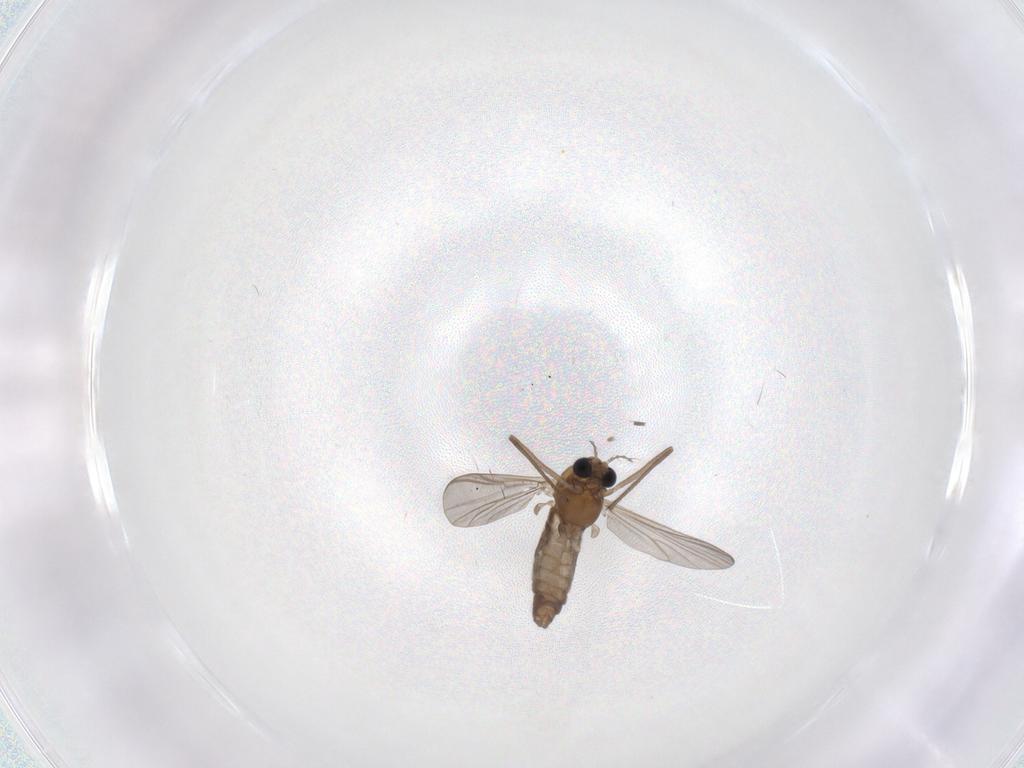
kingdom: Animalia
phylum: Arthropoda
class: Insecta
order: Diptera
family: Chironomidae
